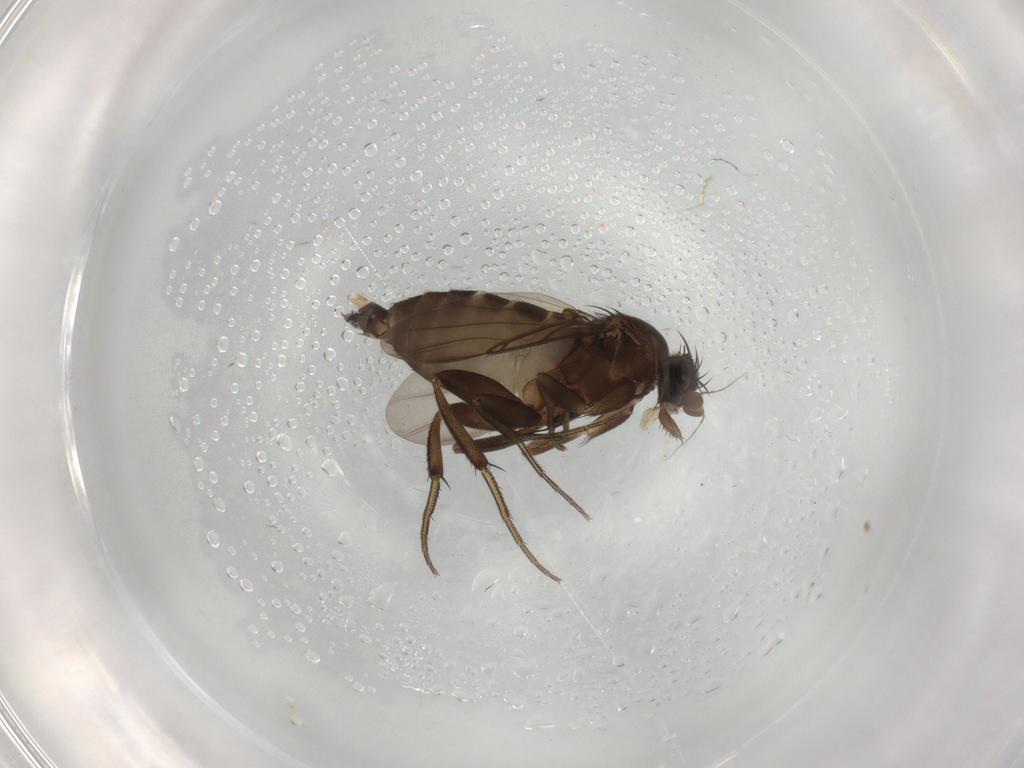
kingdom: Animalia
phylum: Arthropoda
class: Insecta
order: Diptera
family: Phoridae
